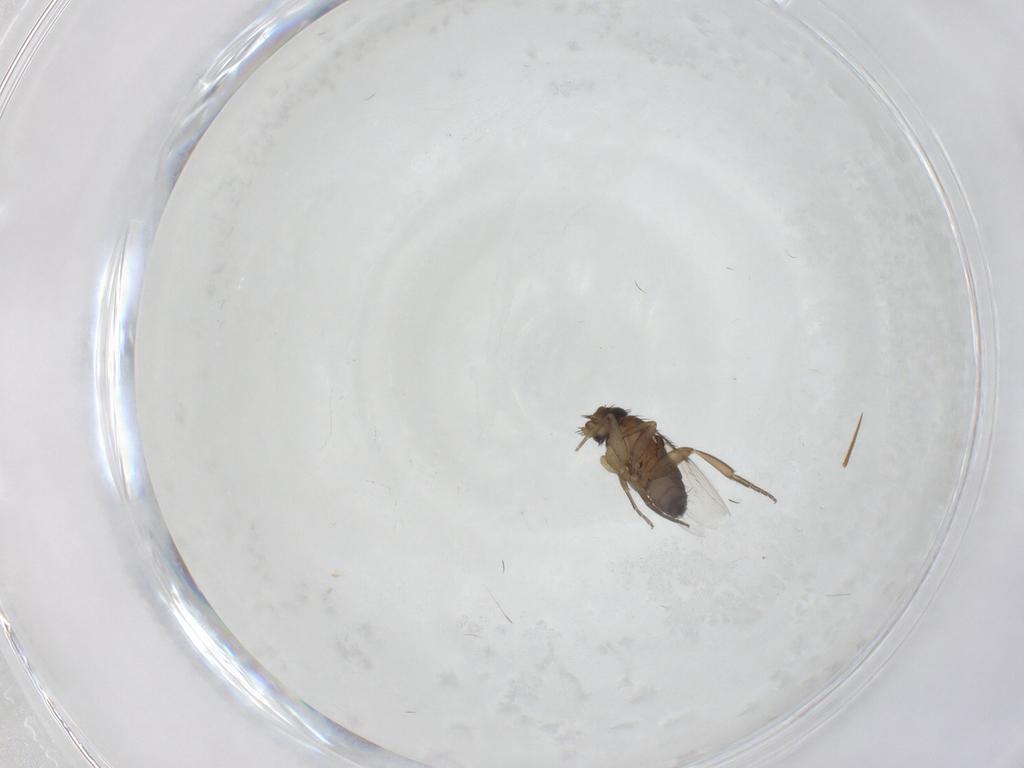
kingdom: Animalia
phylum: Arthropoda
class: Insecta
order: Diptera
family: Phoridae
